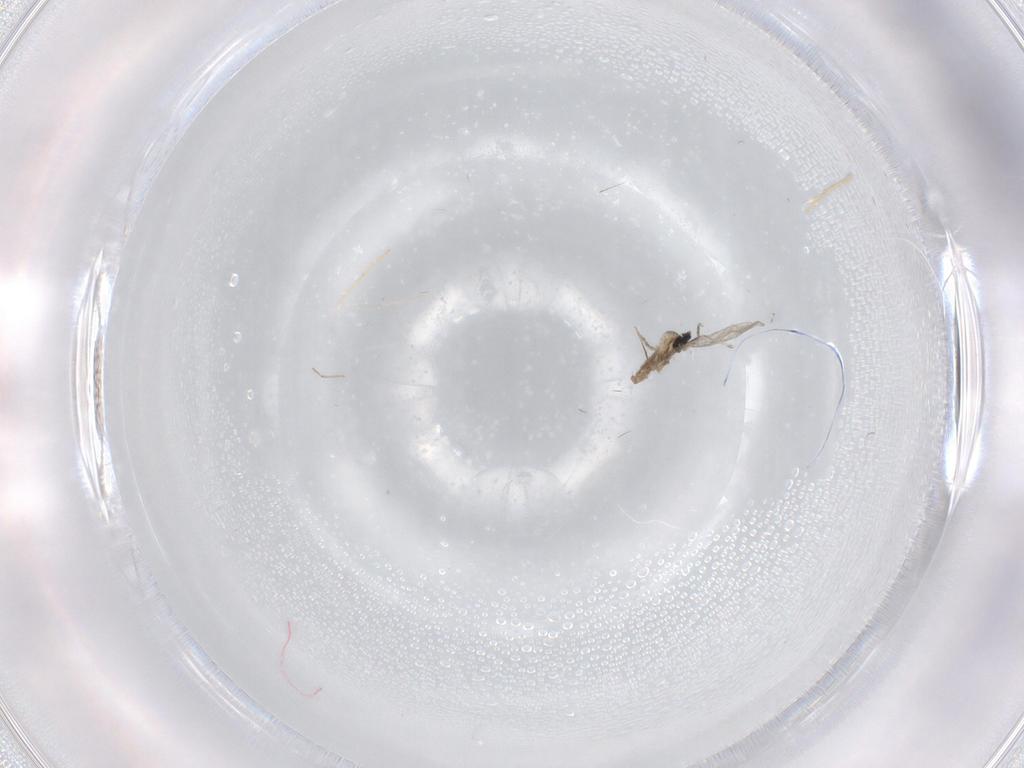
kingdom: Animalia
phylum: Arthropoda
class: Insecta
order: Diptera
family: Cecidomyiidae
